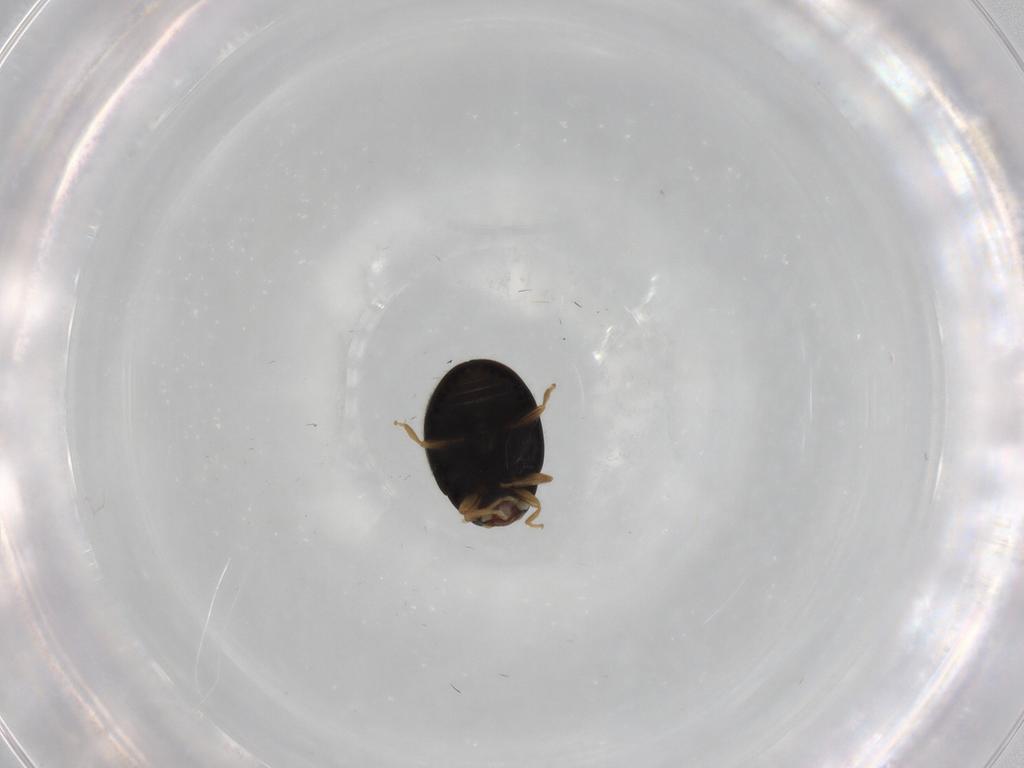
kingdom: Animalia
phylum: Arthropoda
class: Insecta
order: Coleoptera
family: Coccinellidae
